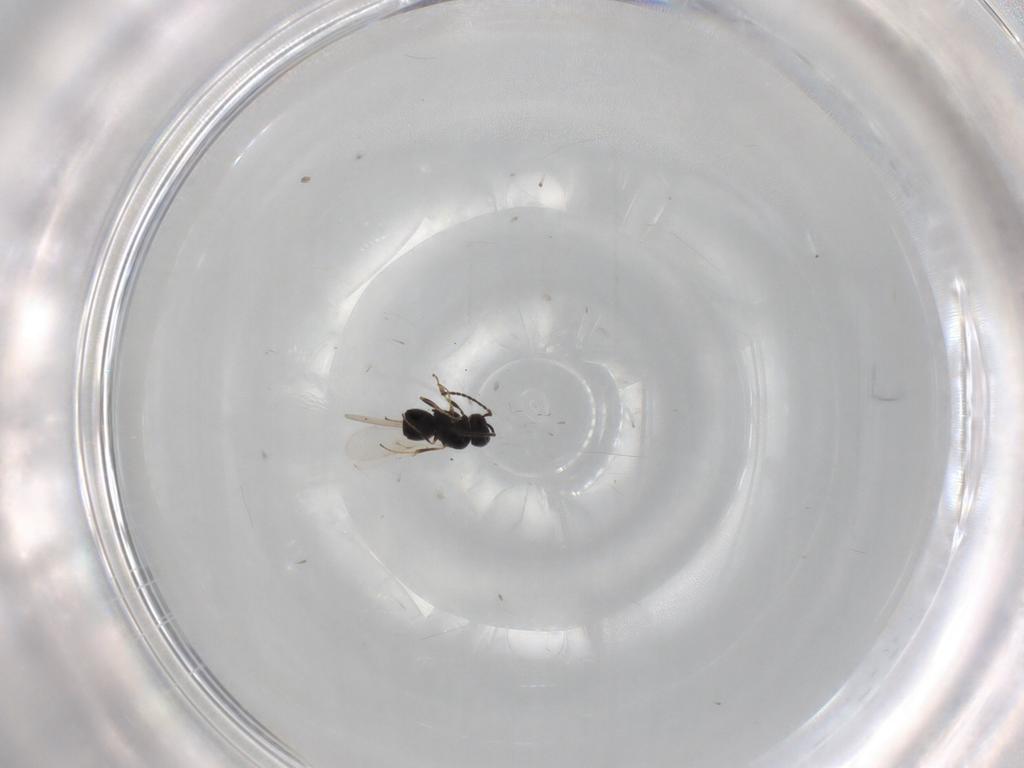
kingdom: Animalia
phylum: Arthropoda
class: Insecta
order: Hymenoptera
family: Scelionidae
